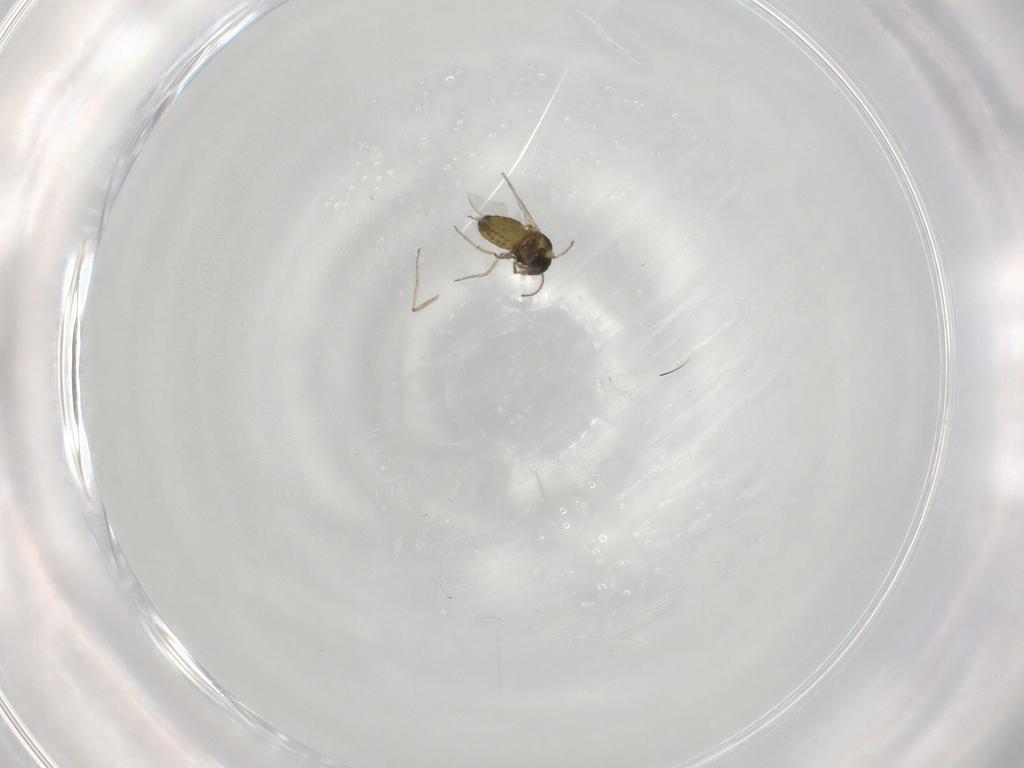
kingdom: Animalia
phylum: Arthropoda
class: Insecta
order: Diptera
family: Ceratopogonidae
